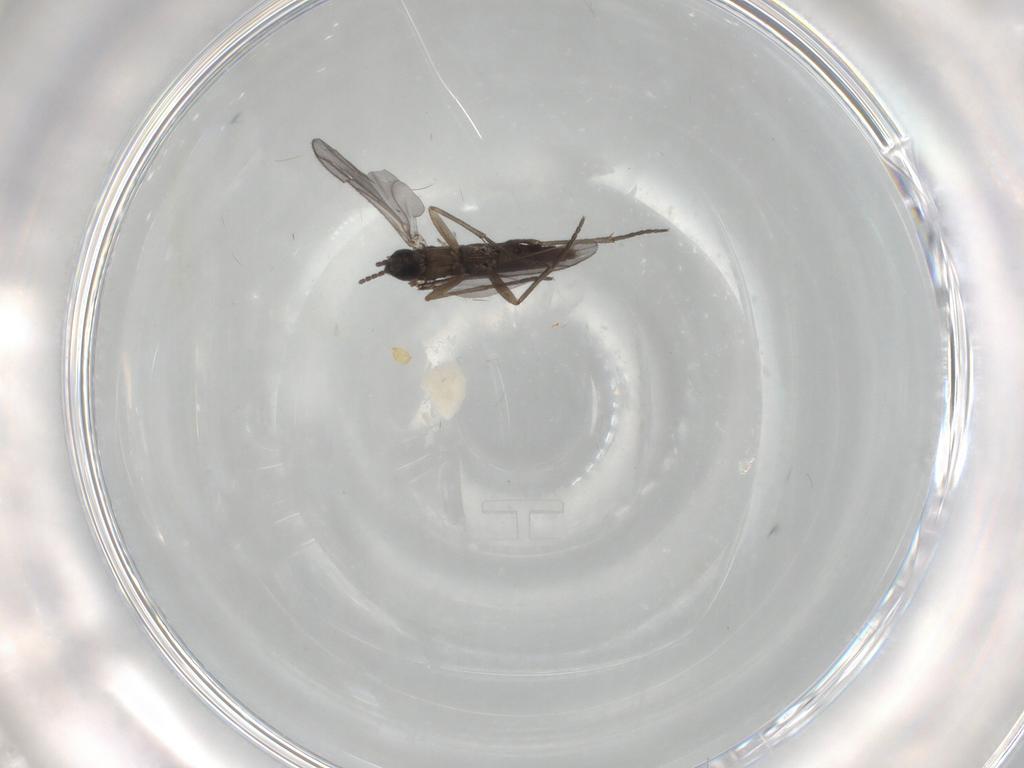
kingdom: Animalia
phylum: Arthropoda
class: Insecta
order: Diptera
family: Sciaridae
